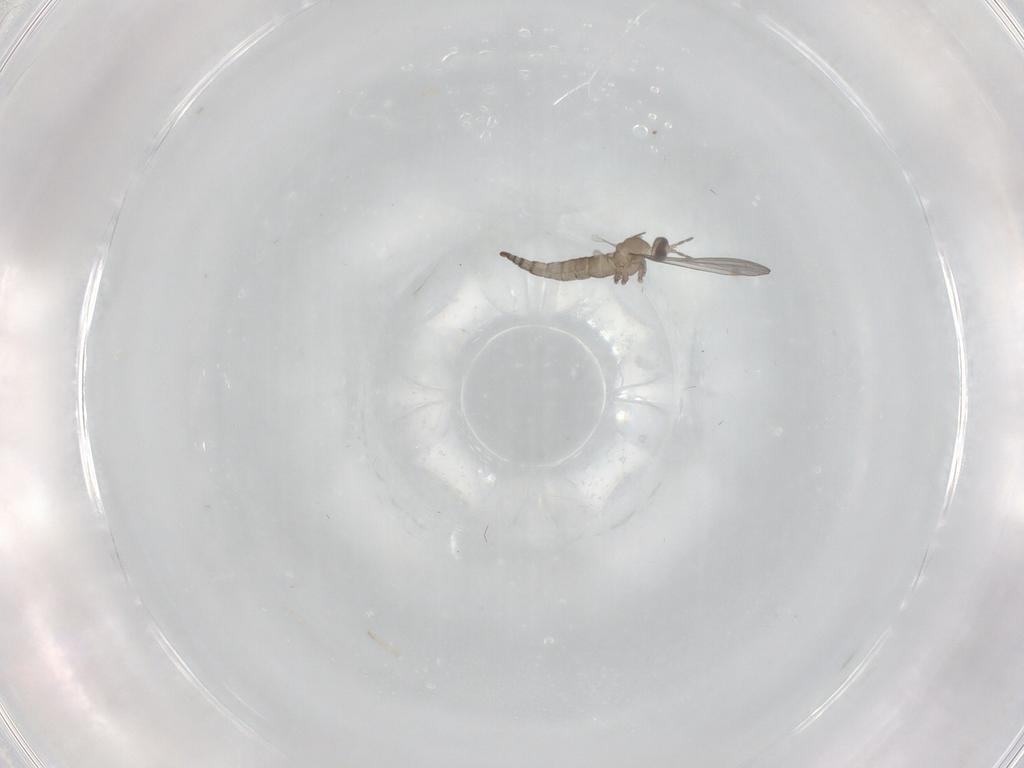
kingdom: Animalia
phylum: Arthropoda
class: Insecta
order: Diptera
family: Cecidomyiidae
